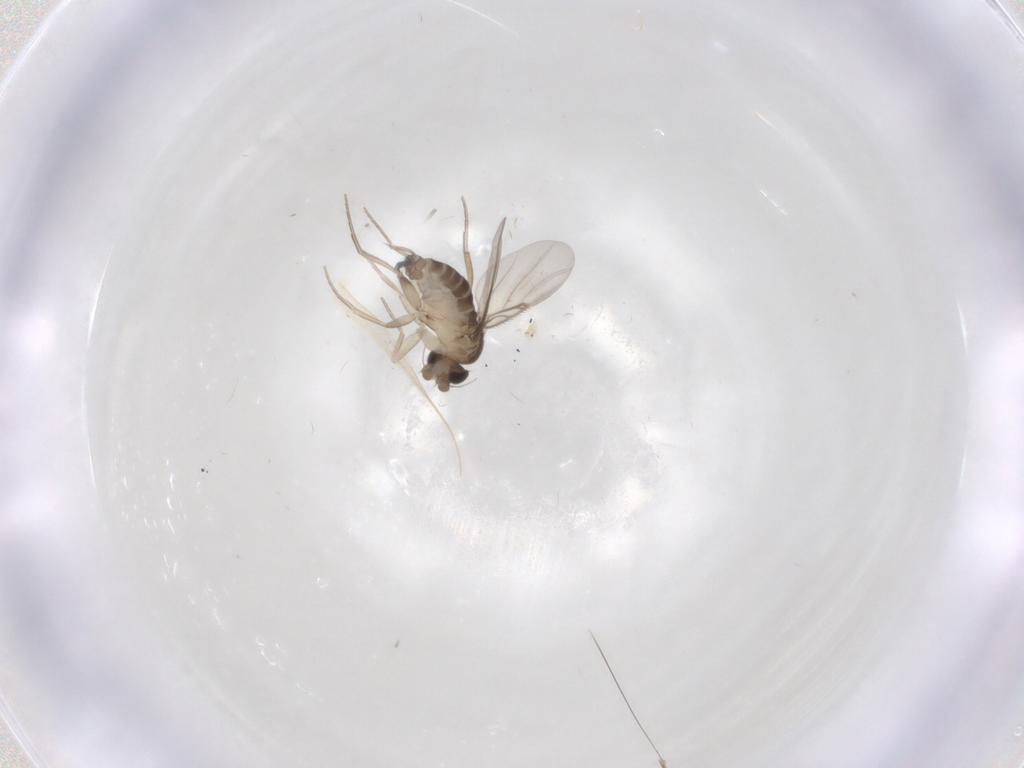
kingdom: Animalia
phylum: Arthropoda
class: Insecta
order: Diptera
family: Phoridae
